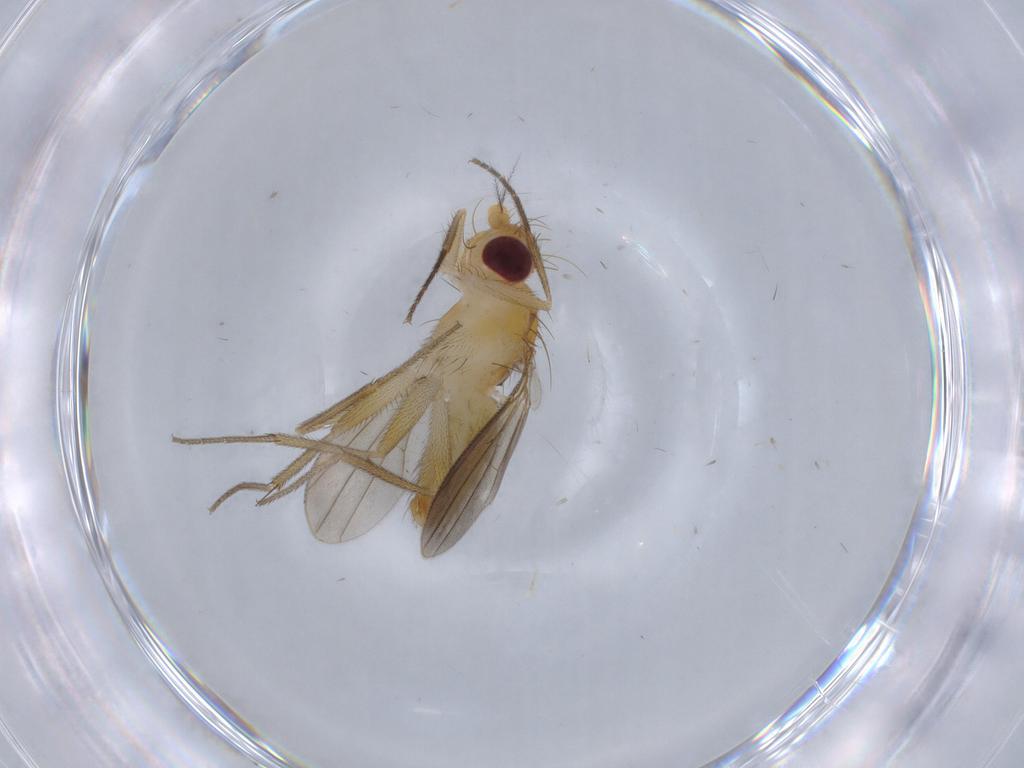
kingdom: Animalia
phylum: Arthropoda
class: Insecta
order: Diptera
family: Clusiidae
